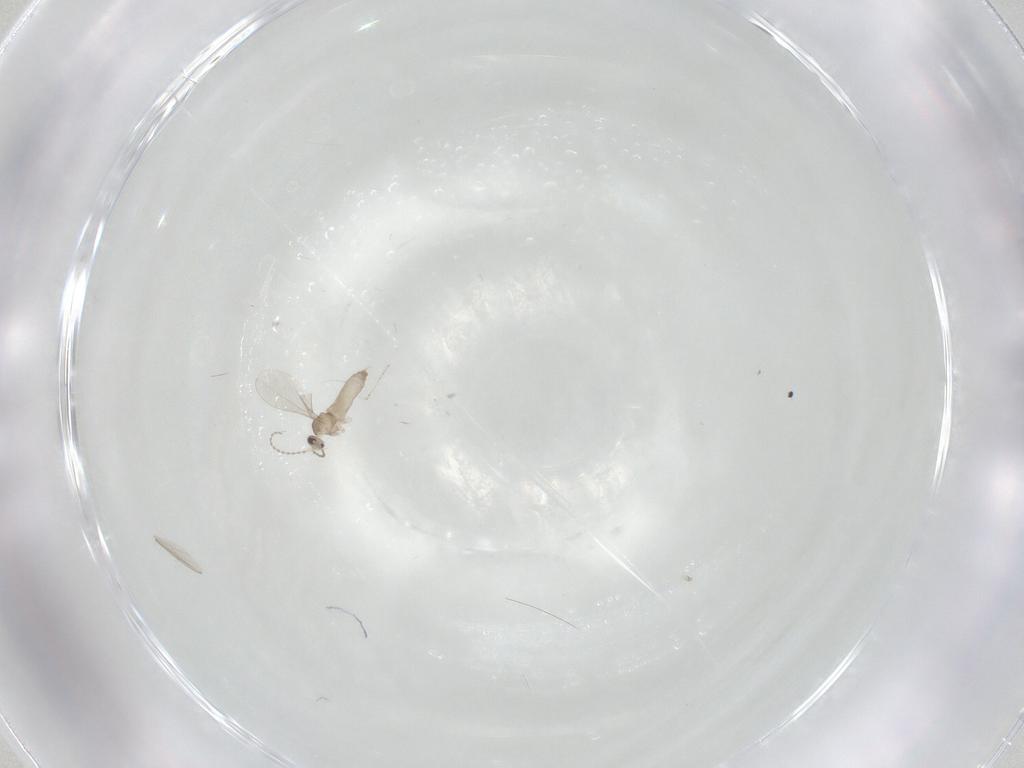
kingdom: Animalia
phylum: Arthropoda
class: Insecta
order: Diptera
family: Cecidomyiidae
